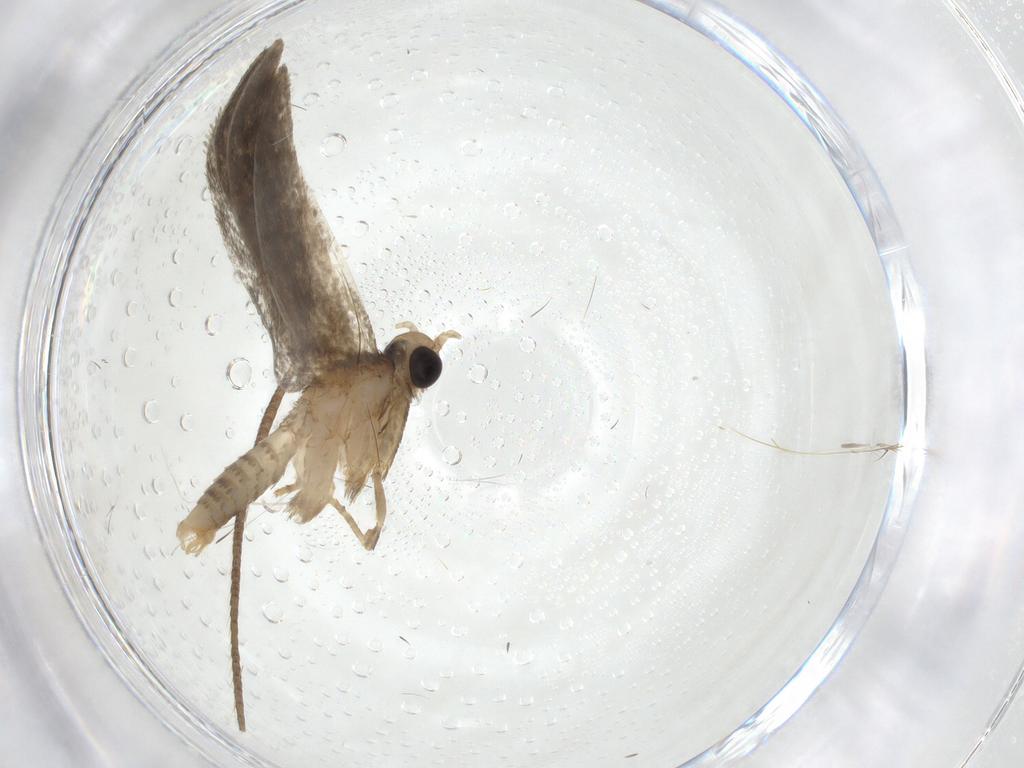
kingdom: Animalia
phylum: Arthropoda
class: Insecta
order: Lepidoptera
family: Erebidae
